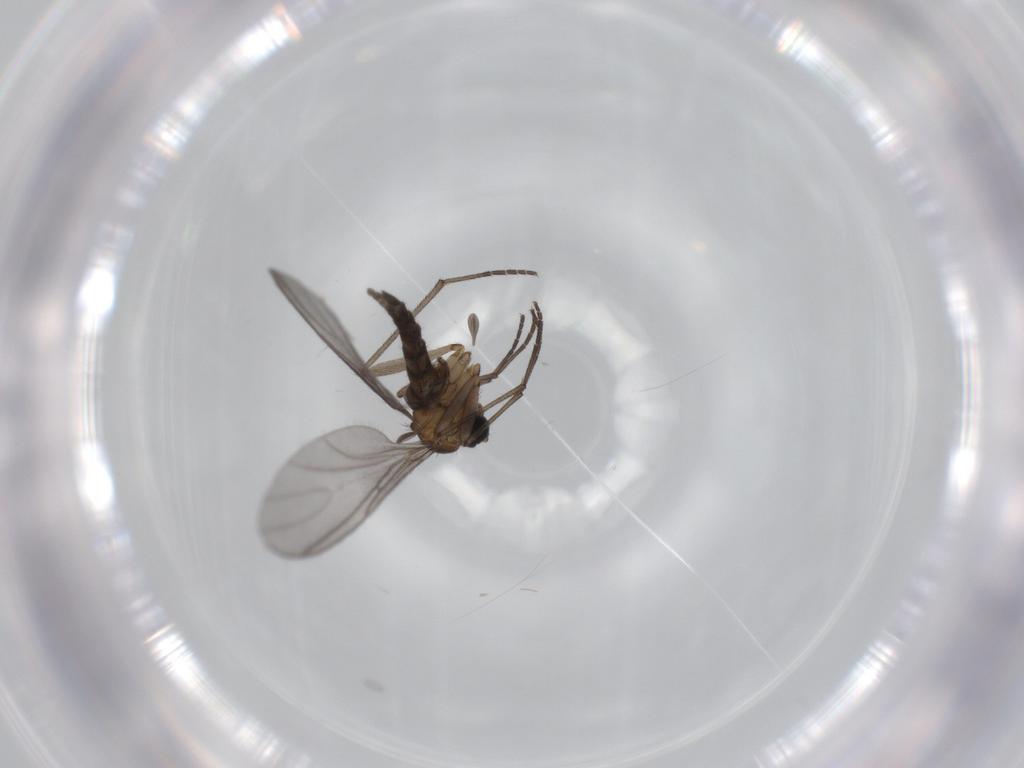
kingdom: Animalia
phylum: Arthropoda
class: Insecta
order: Diptera
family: Sciaridae
